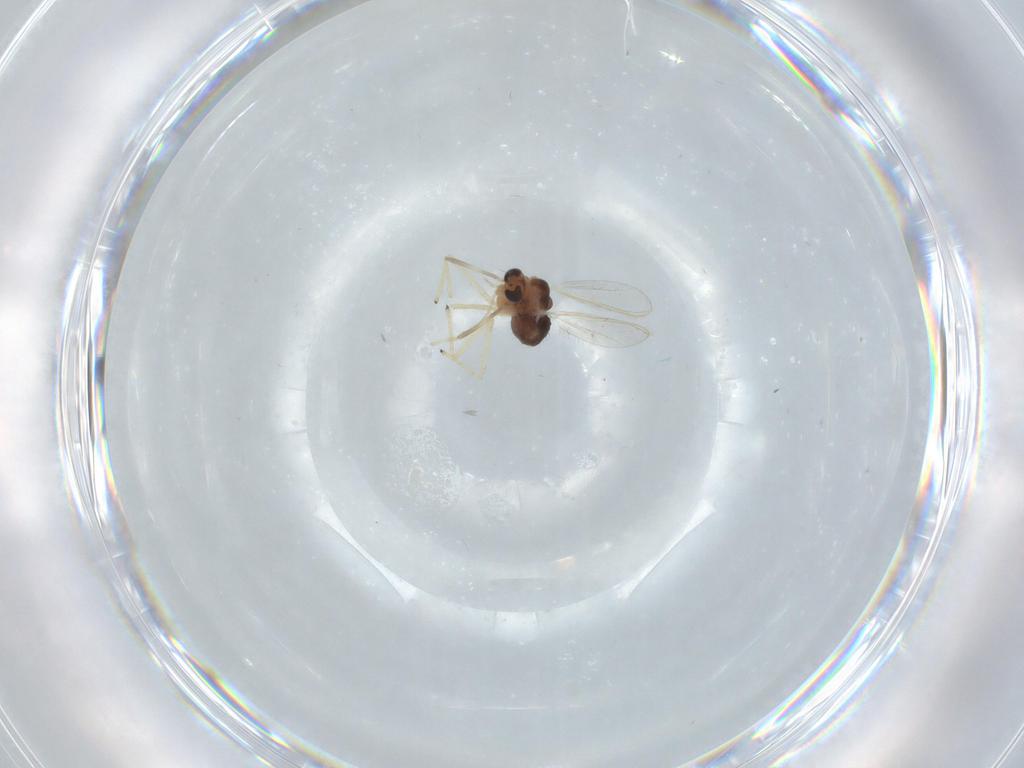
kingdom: Animalia
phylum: Arthropoda
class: Insecta
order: Diptera
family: Chironomidae
